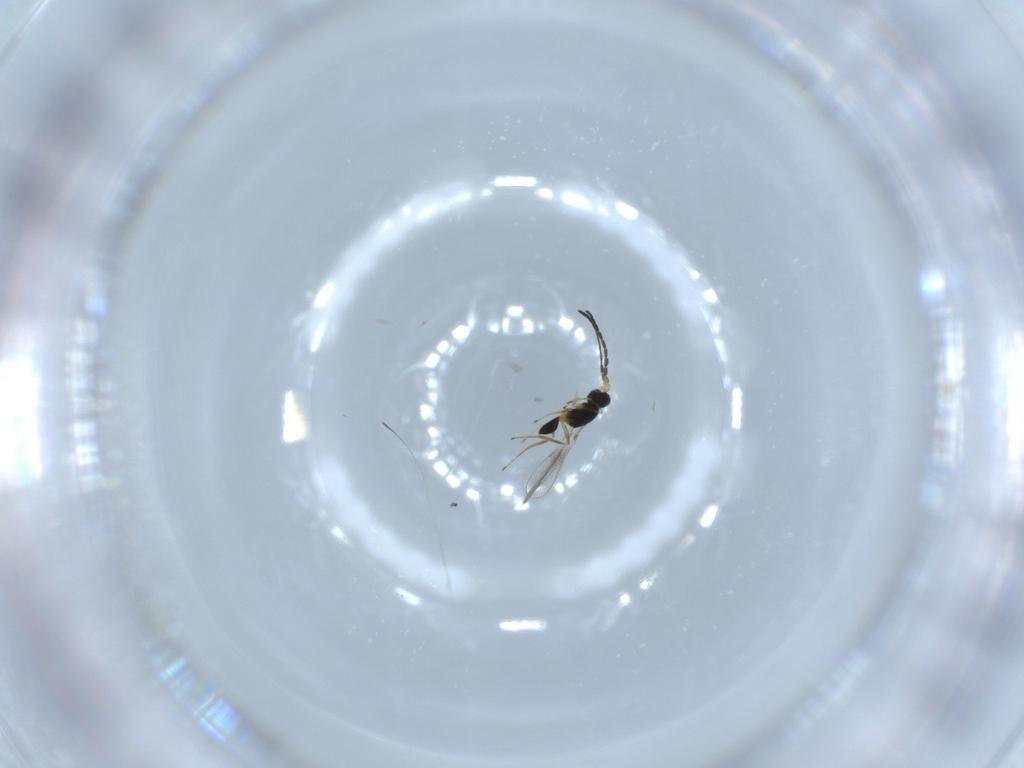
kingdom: Animalia
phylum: Arthropoda
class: Insecta
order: Hymenoptera
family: Mymaridae
